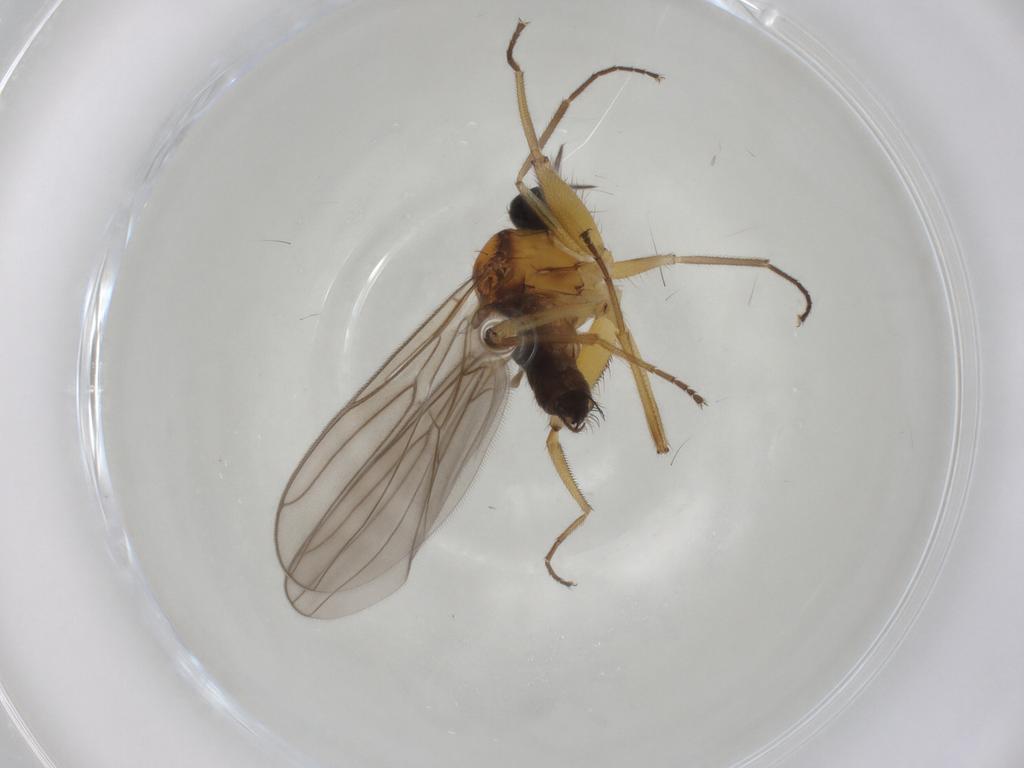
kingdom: Animalia
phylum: Arthropoda
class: Insecta
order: Diptera
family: Hybotidae
